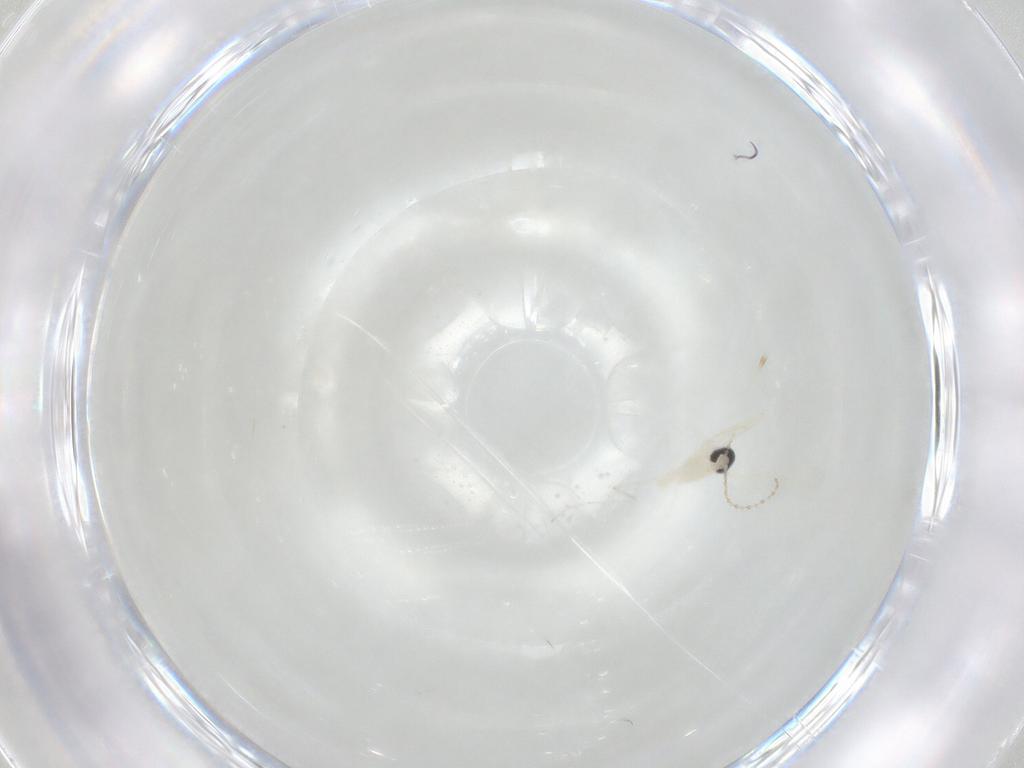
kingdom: Animalia
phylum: Arthropoda
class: Insecta
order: Diptera
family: Cecidomyiidae
